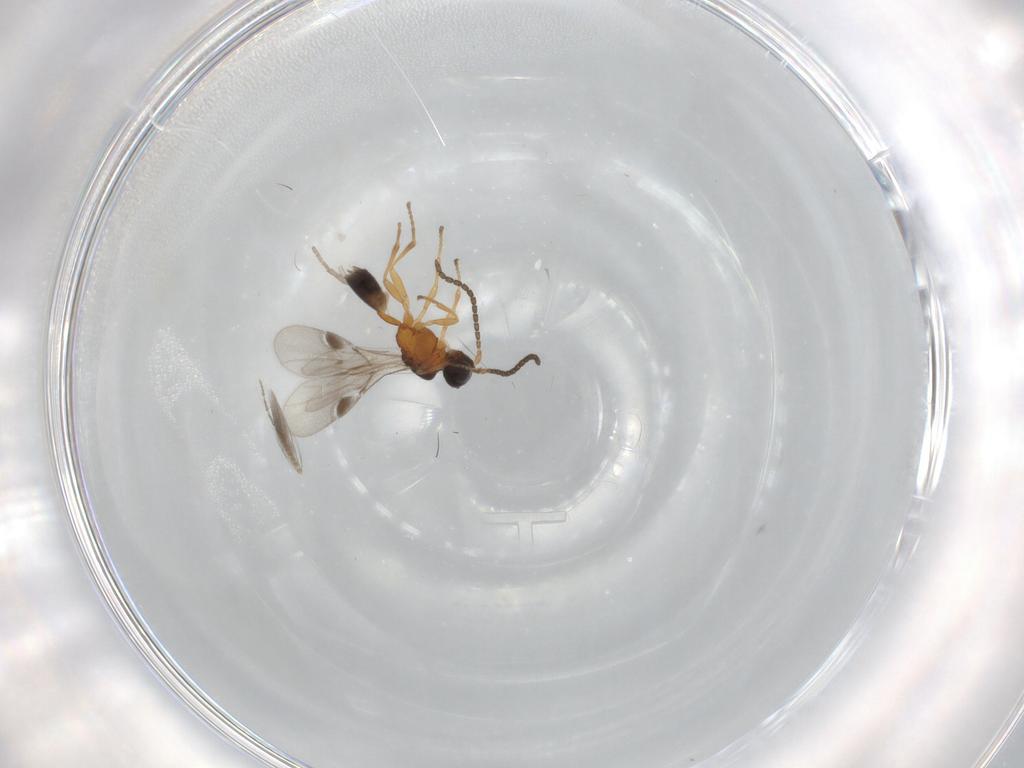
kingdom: Animalia
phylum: Arthropoda
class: Insecta
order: Hymenoptera
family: Braconidae
